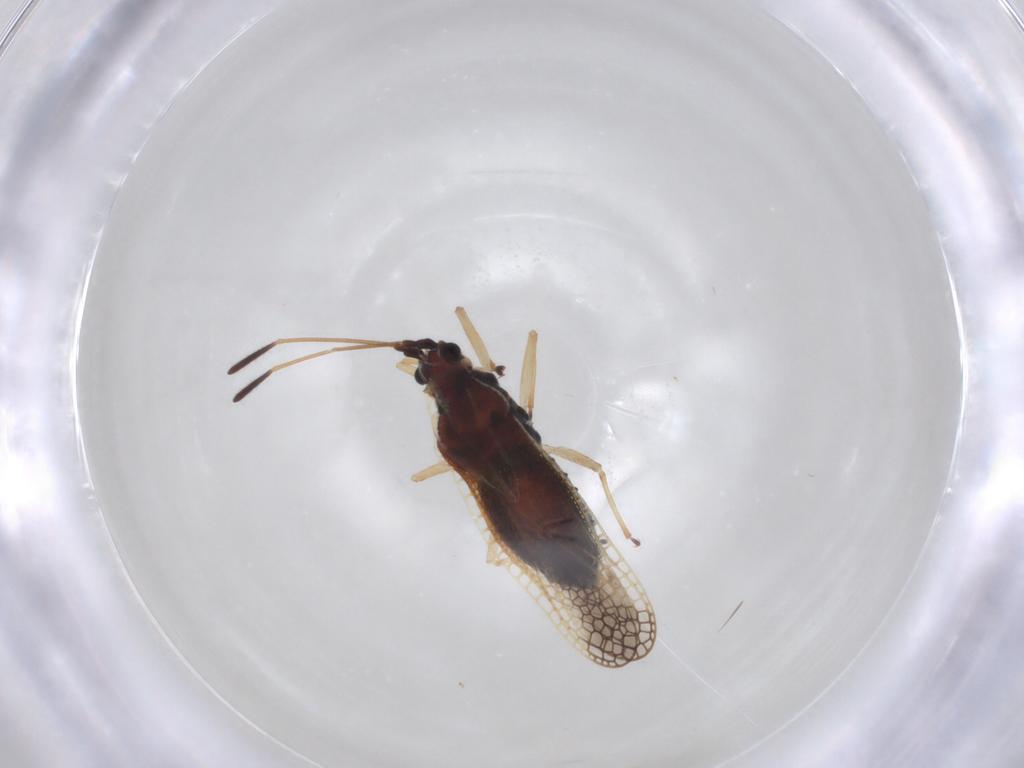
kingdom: Animalia
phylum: Arthropoda
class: Insecta
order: Hemiptera
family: Tingidae
